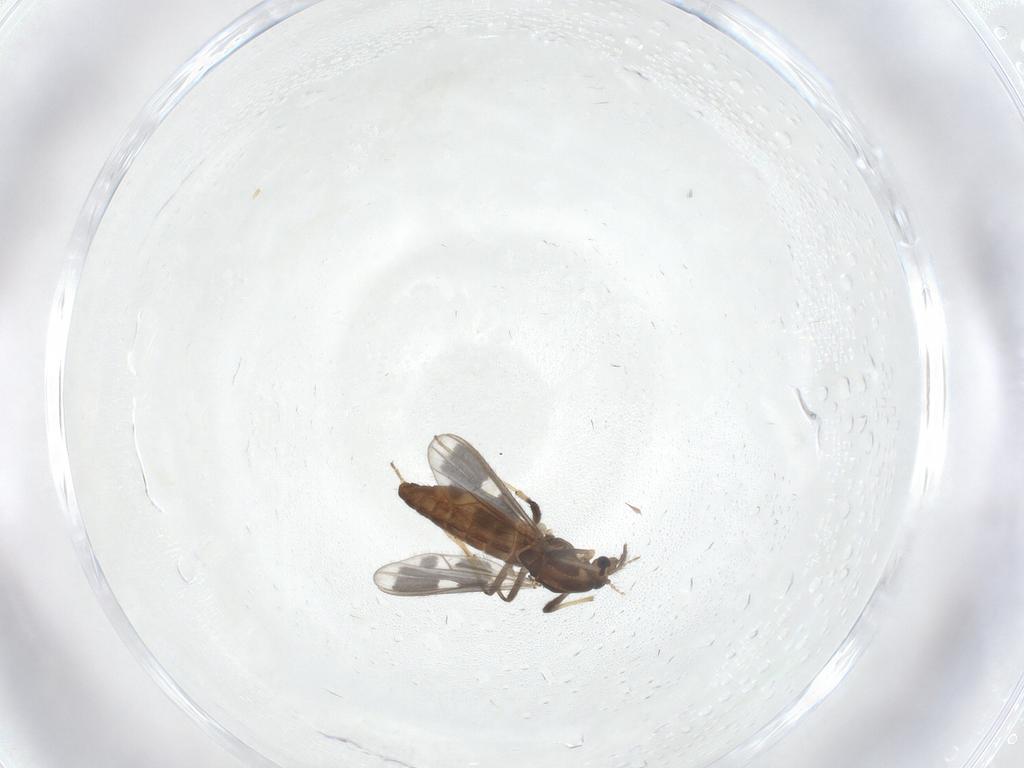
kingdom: Animalia
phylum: Arthropoda
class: Insecta
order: Diptera
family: Chironomidae
